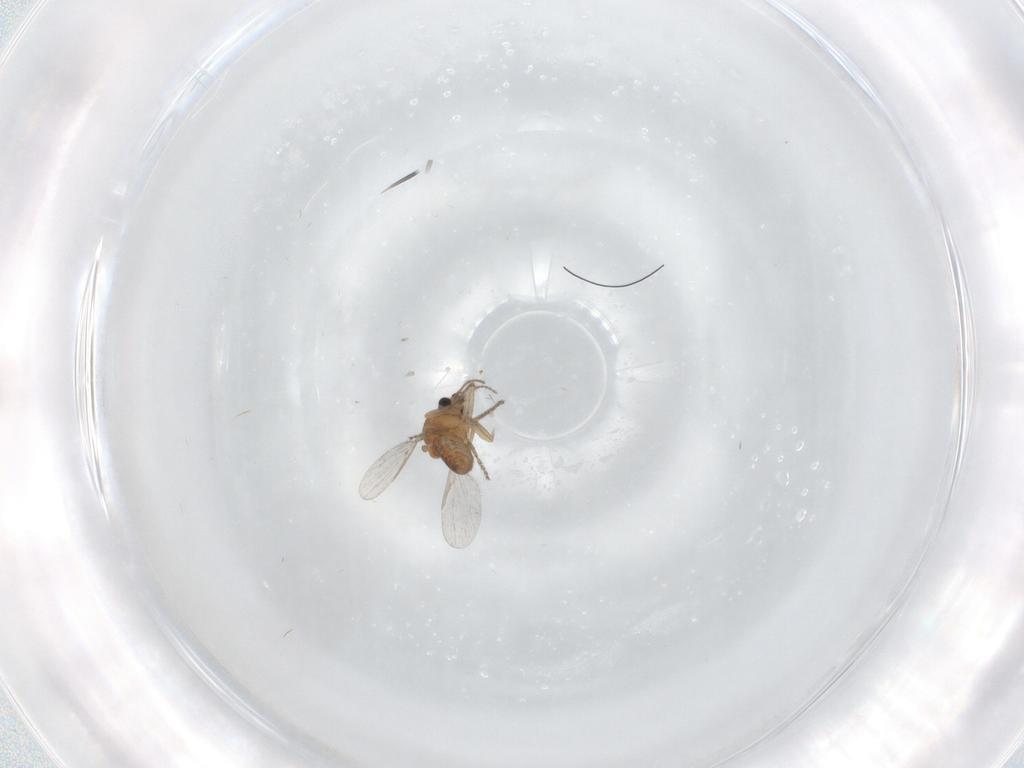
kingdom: Animalia
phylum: Arthropoda
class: Insecta
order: Diptera
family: Ceratopogonidae
